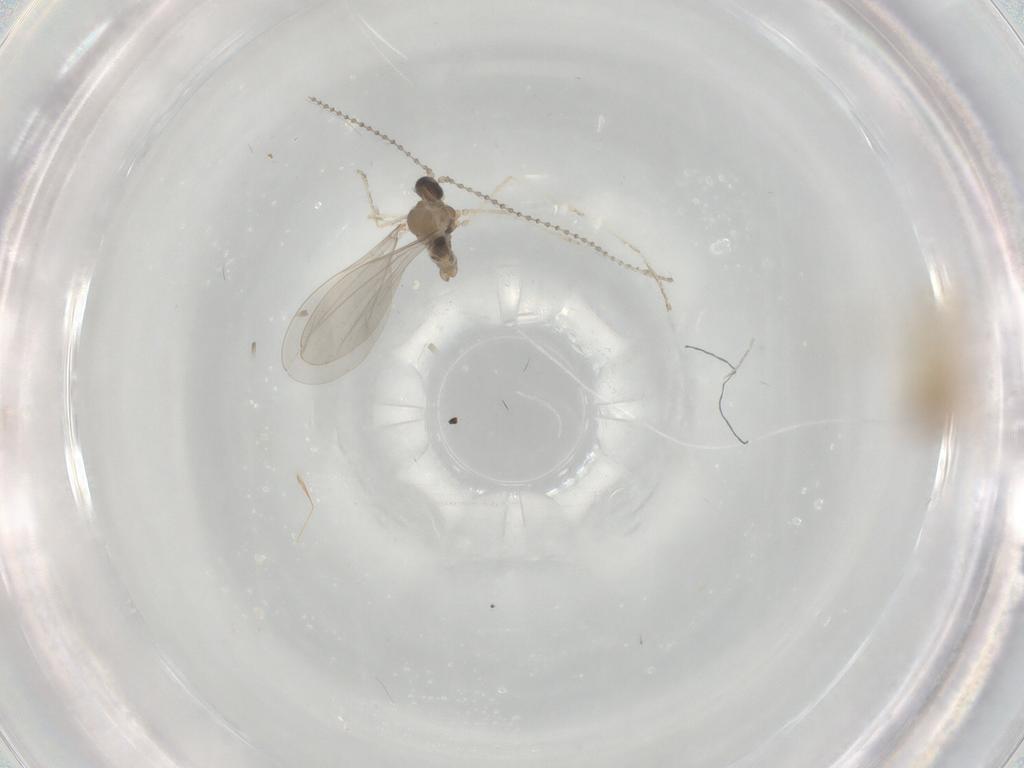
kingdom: Animalia
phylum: Arthropoda
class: Insecta
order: Diptera
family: Cecidomyiidae
